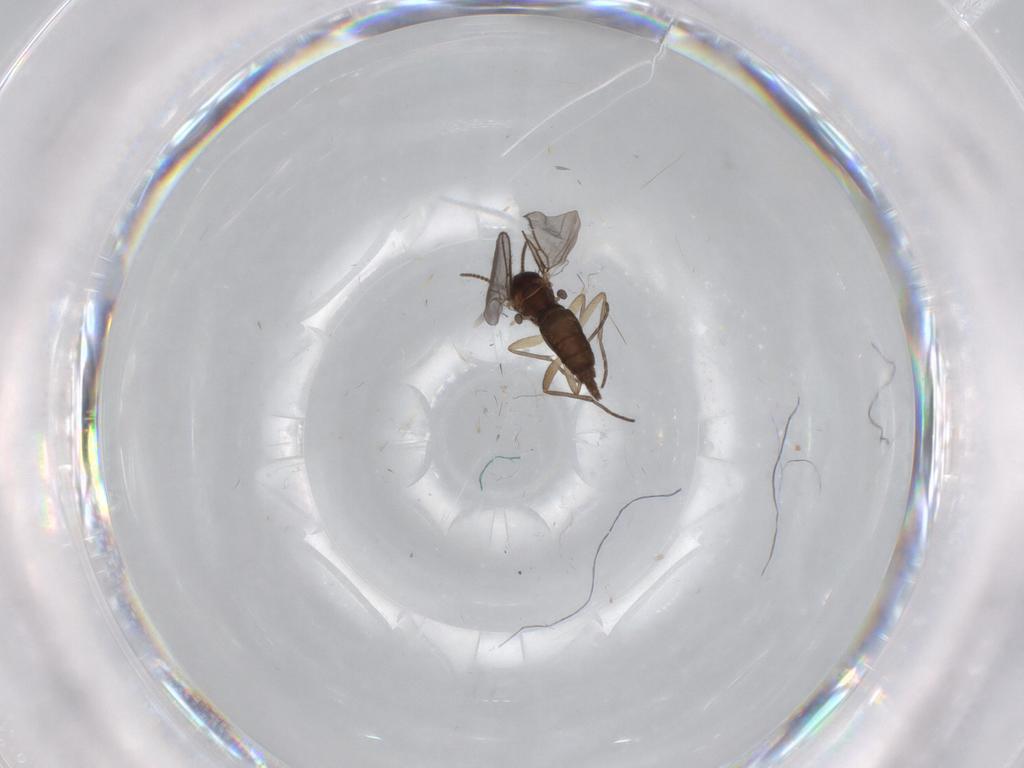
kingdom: Animalia
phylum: Arthropoda
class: Insecta
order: Diptera
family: Sciaridae
